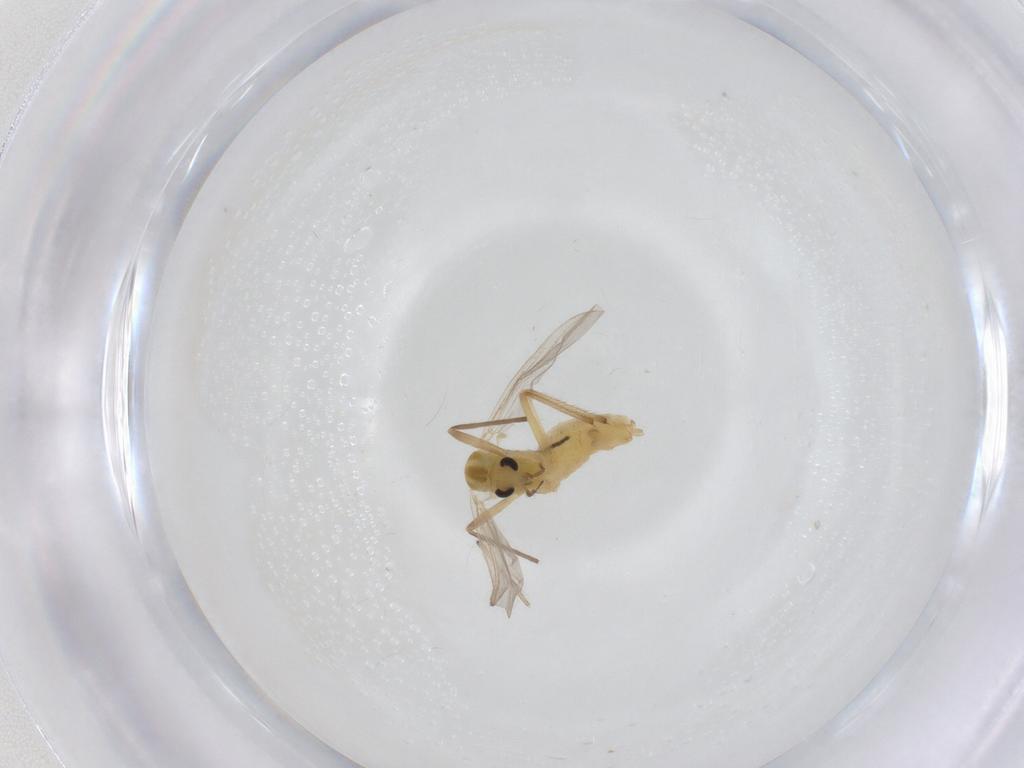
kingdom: Animalia
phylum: Arthropoda
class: Insecta
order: Diptera
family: Chironomidae
